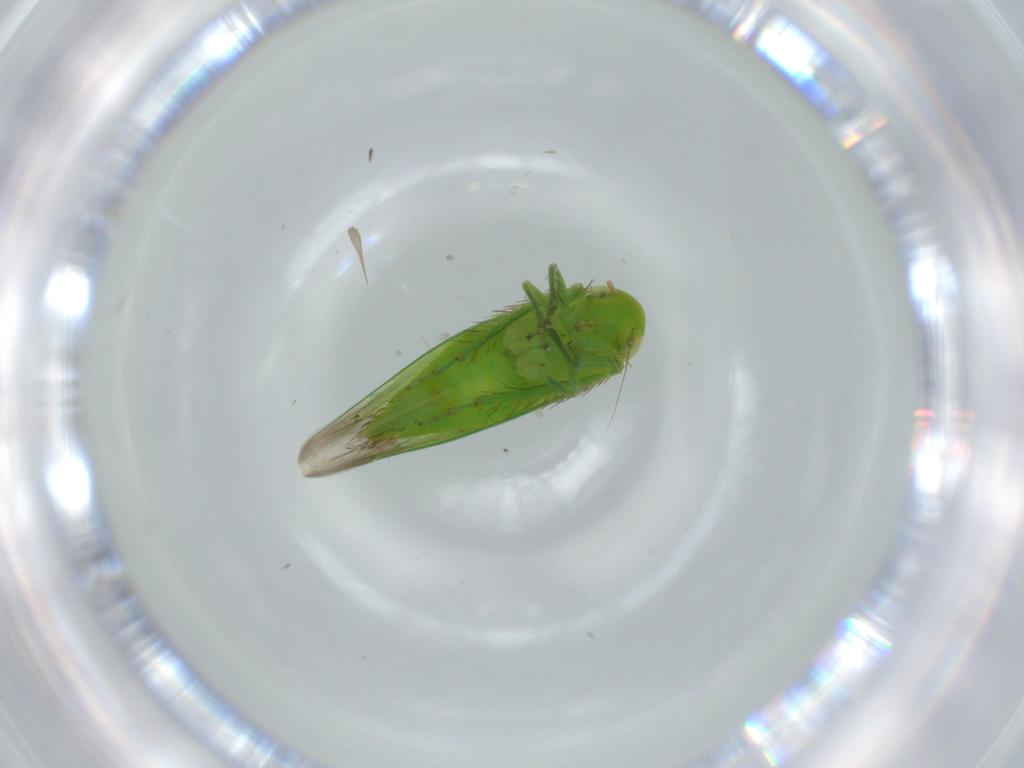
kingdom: Animalia
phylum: Arthropoda
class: Insecta
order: Hemiptera
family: Cicadellidae
